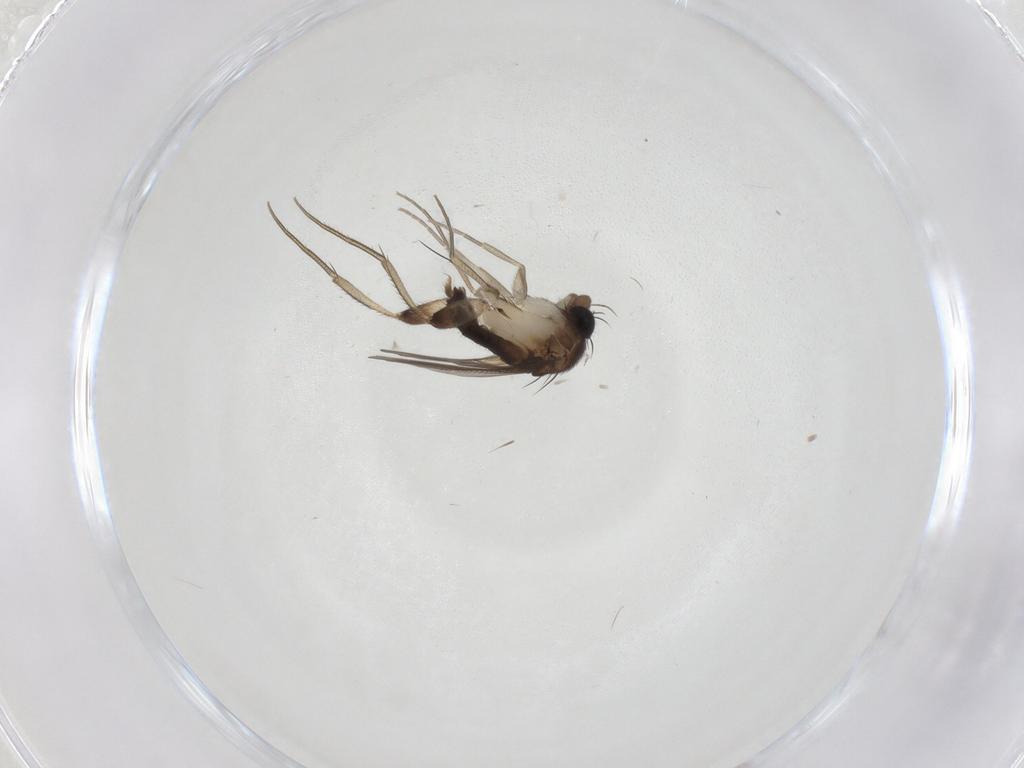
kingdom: Animalia
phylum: Arthropoda
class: Insecta
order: Diptera
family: Phoridae
